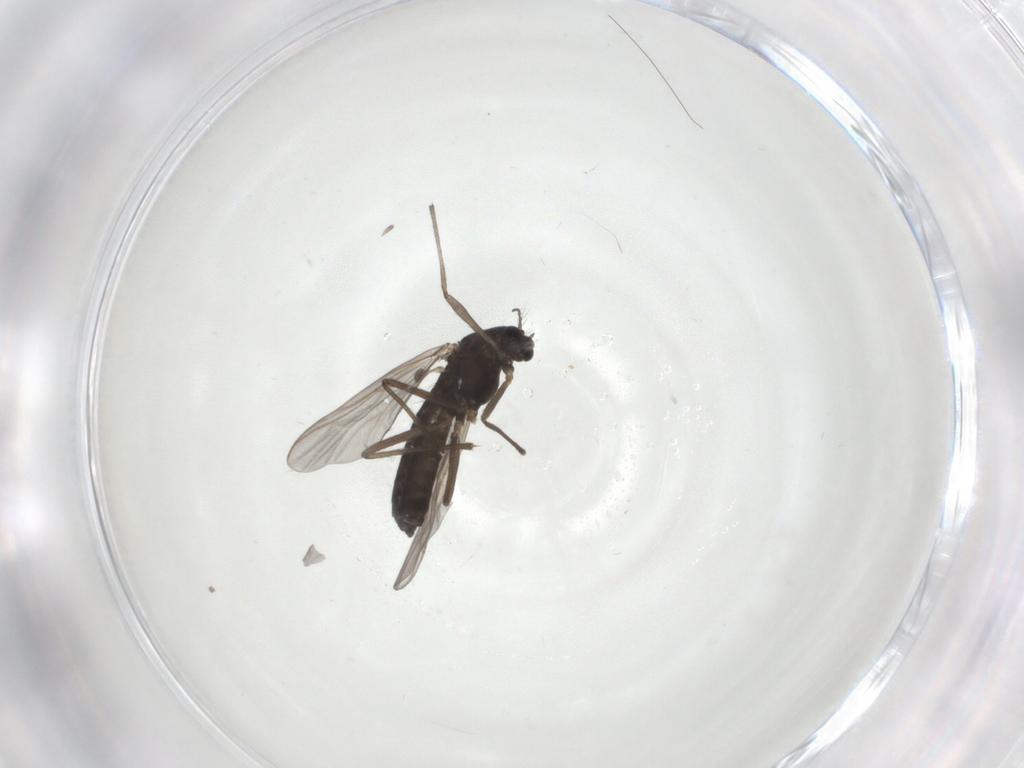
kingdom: Animalia
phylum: Arthropoda
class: Insecta
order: Diptera
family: Chironomidae
